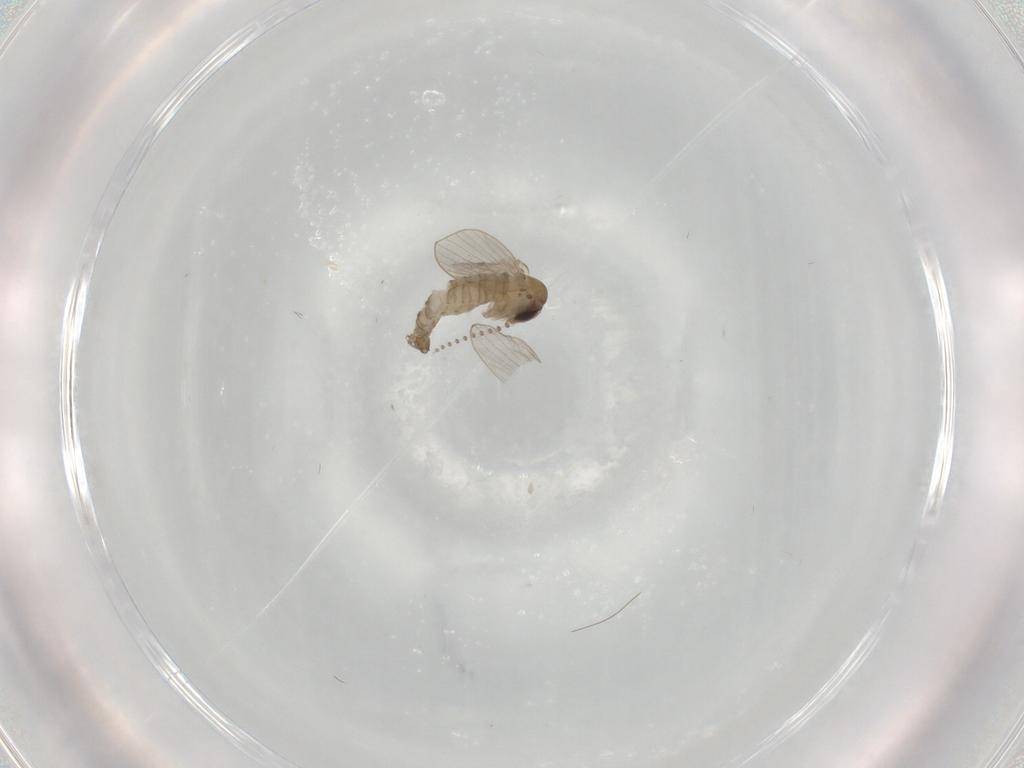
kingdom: Animalia
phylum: Arthropoda
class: Insecta
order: Diptera
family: Psychodidae
